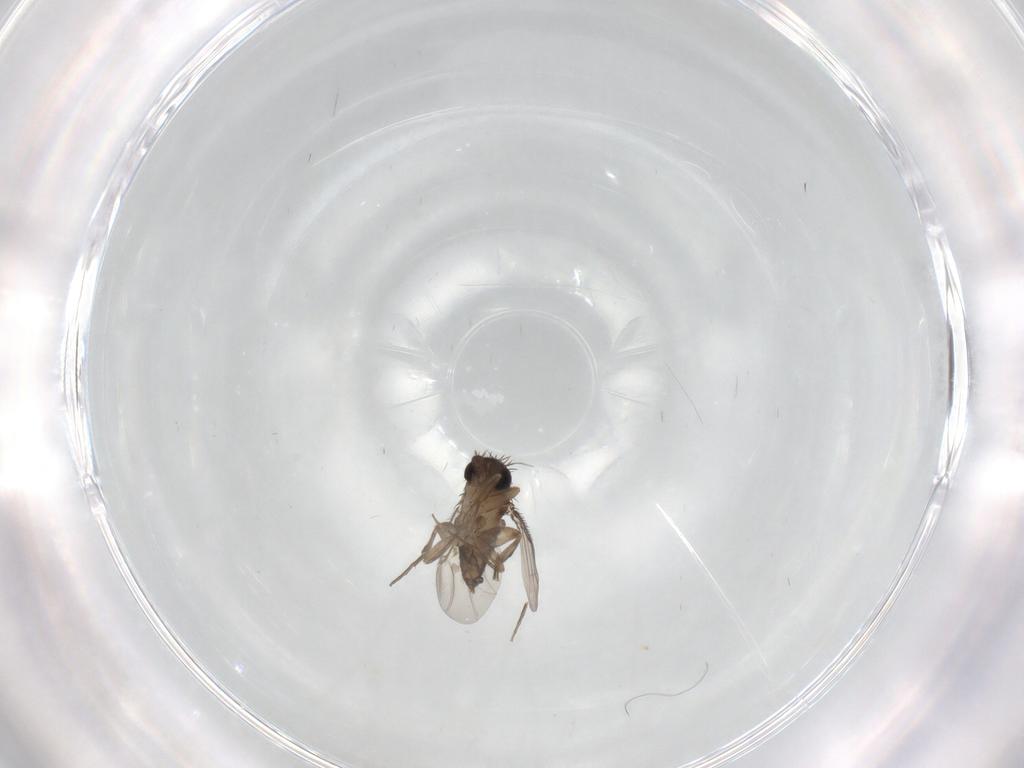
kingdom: Animalia
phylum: Arthropoda
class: Insecta
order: Diptera
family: Phoridae
